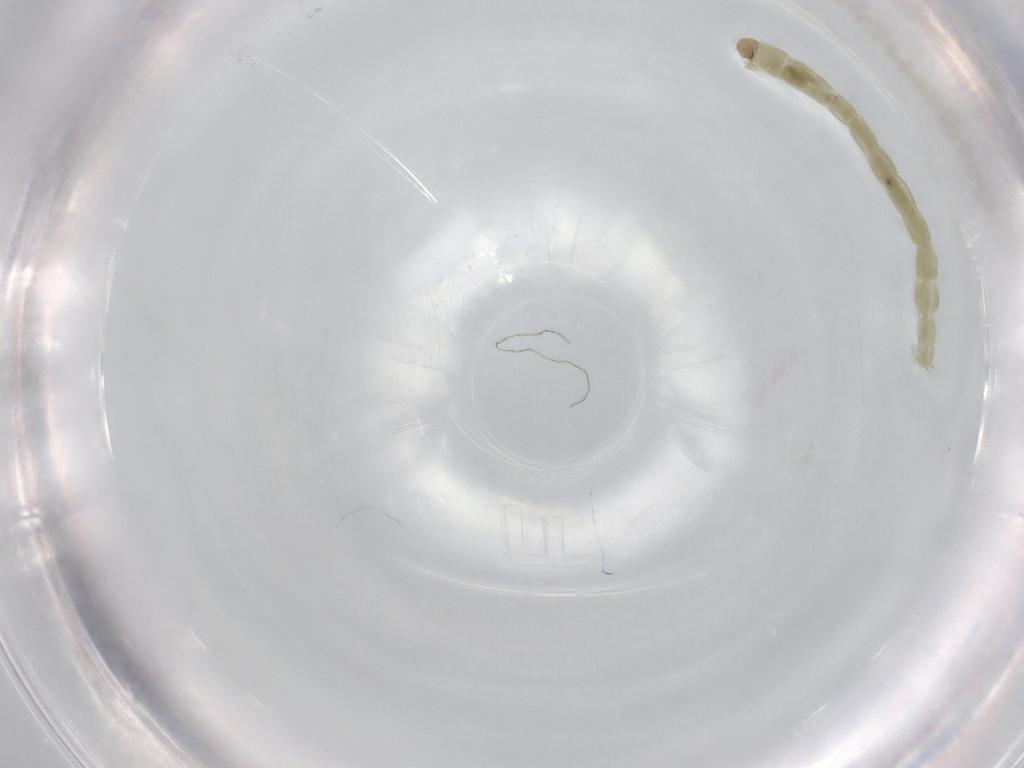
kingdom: Animalia
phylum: Arthropoda
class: Insecta
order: Diptera
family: Chironomidae
